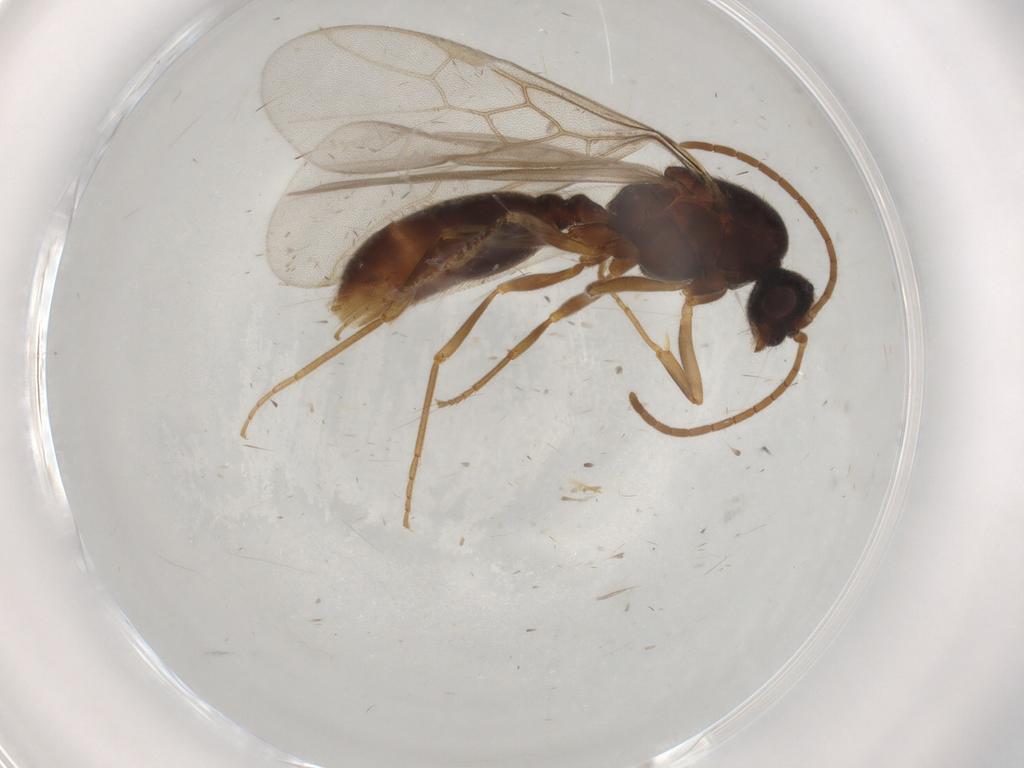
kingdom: Animalia
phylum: Arthropoda
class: Insecta
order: Hymenoptera
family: Formicidae
